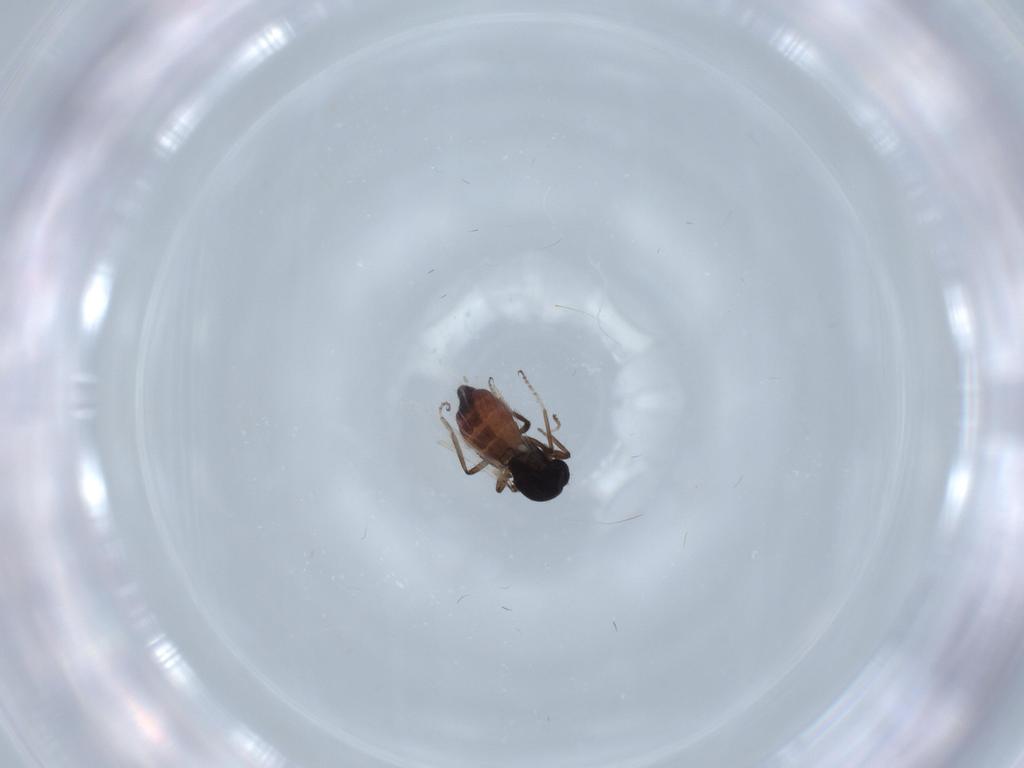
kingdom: Animalia
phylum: Arthropoda
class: Insecta
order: Diptera
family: Ceratopogonidae
